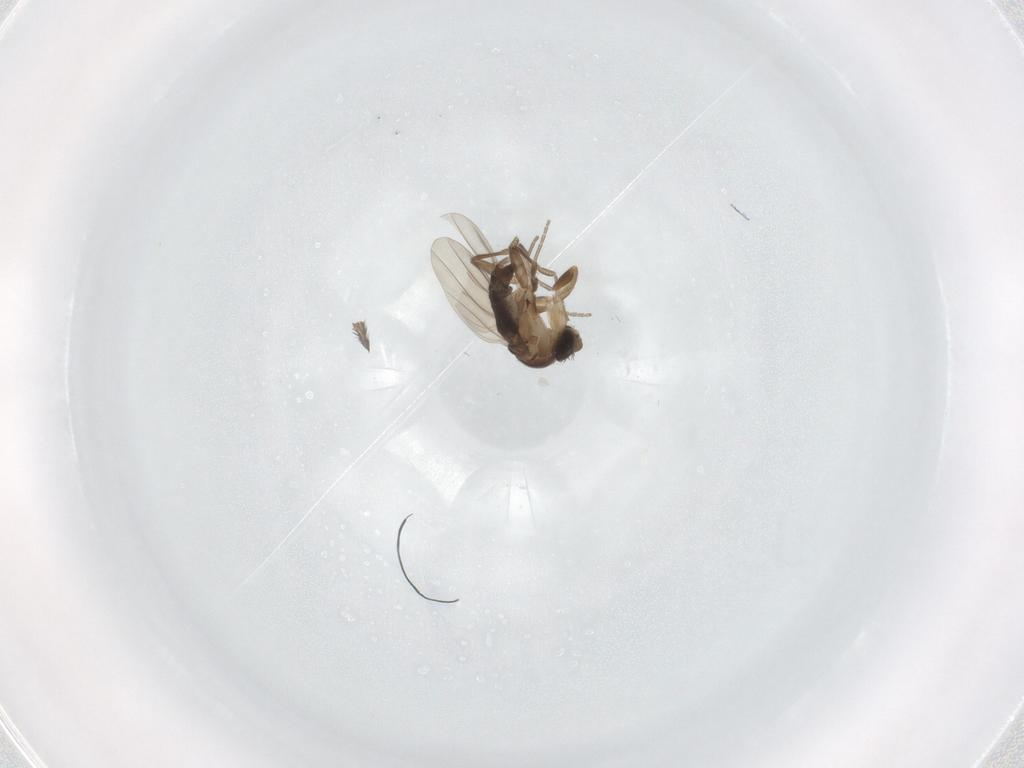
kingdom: Animalia
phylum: Arthropoda
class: Insecta
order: Diptera
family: Phoridae
